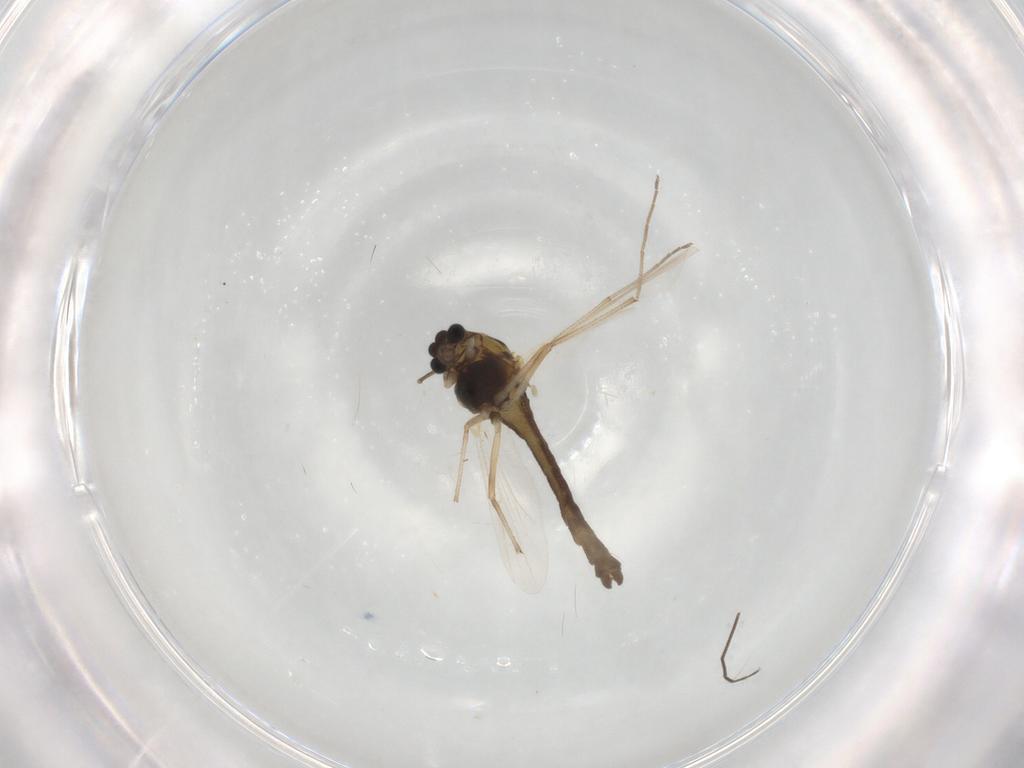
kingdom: Animalia
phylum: Arthropoda
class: Insecta
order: Diptera
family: Chironomidae
